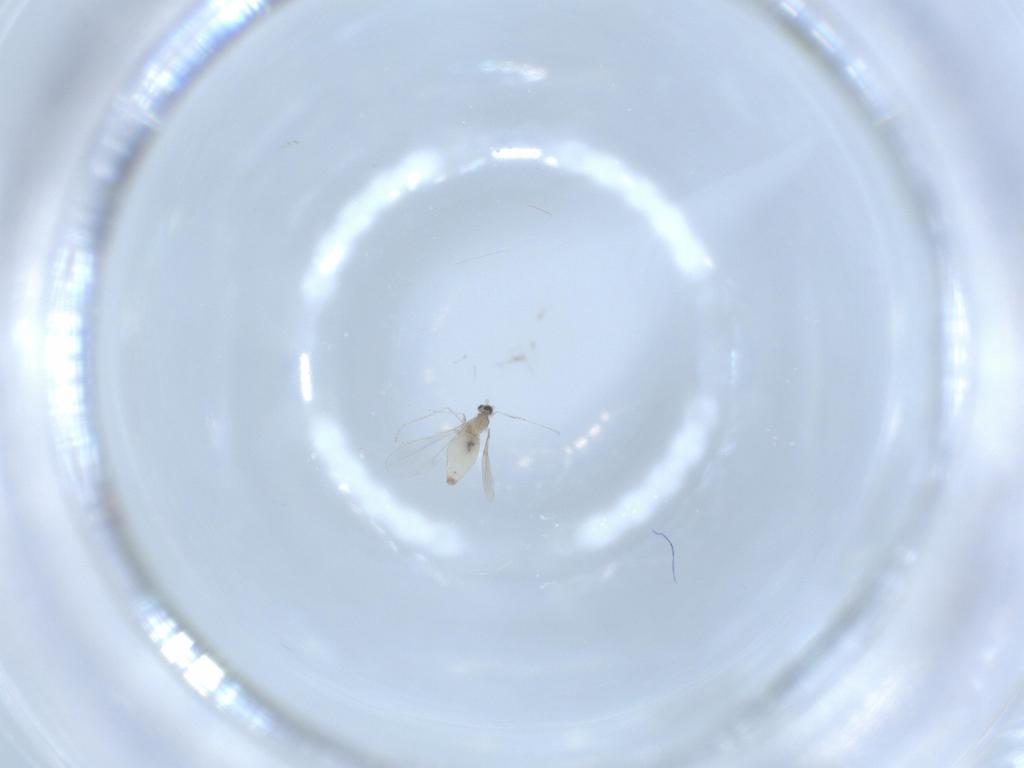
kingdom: Animalia
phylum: Arthropoda
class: Insecta
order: Diptera
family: Cecidomyiidae
